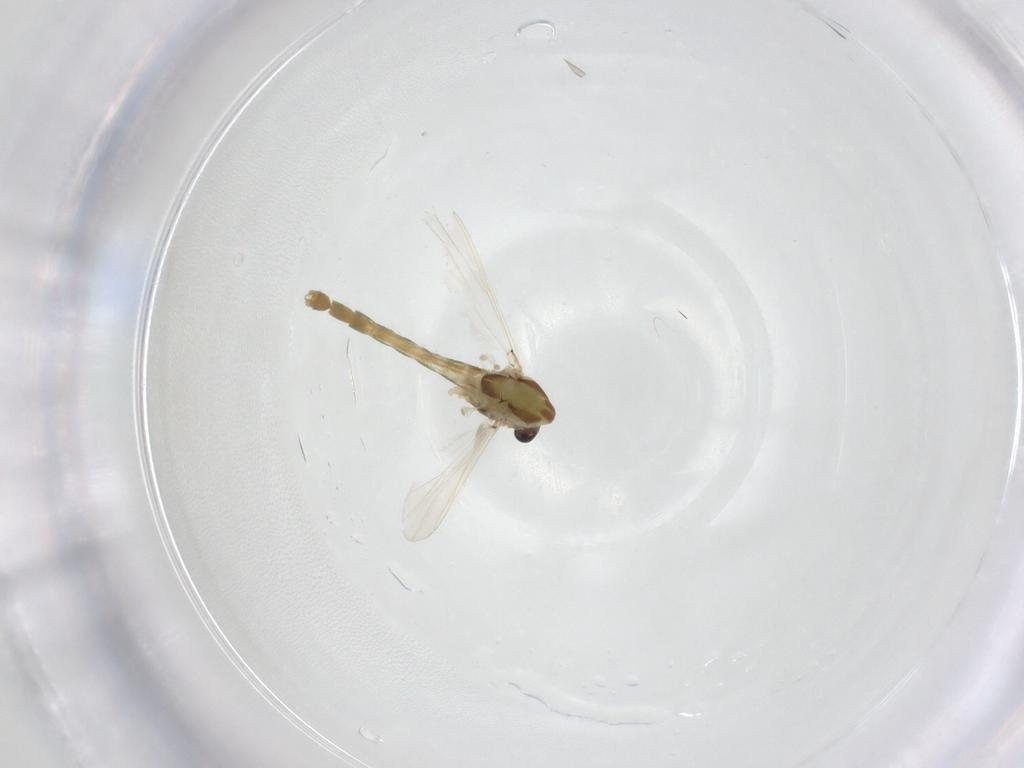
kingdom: Animalia
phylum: Arthropoda
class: Insecta
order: Diptera
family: Chironomidae
